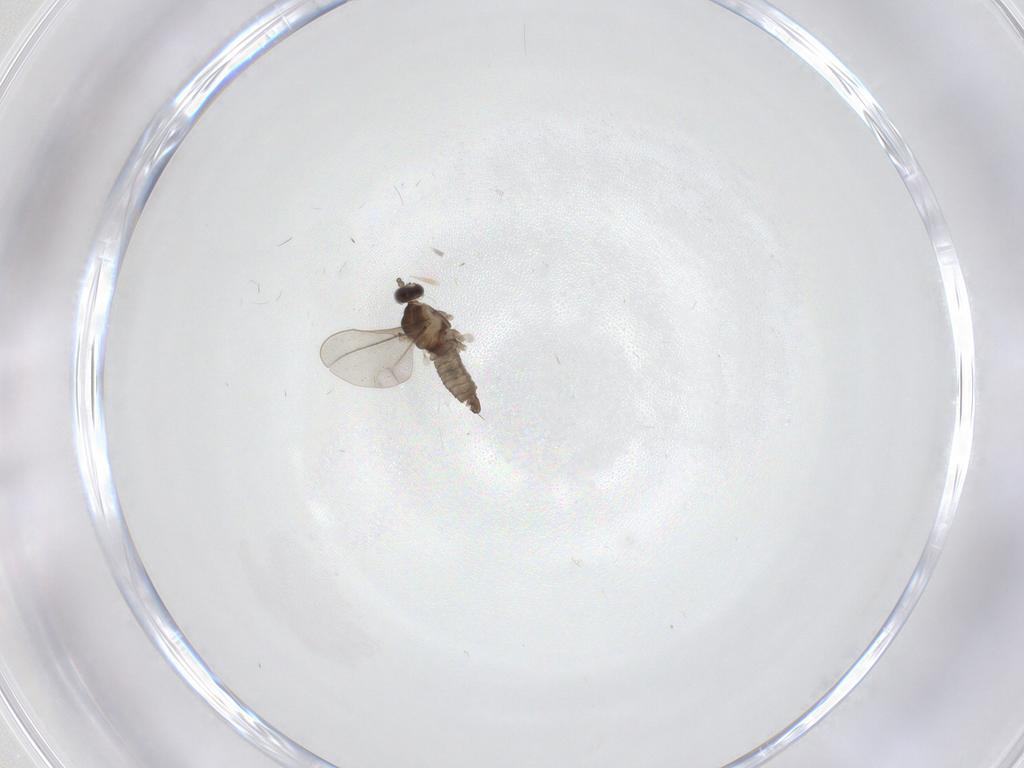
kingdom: Animalia
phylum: Arthropoda
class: Insecta
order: Diptera
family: Cecidomyiidae
